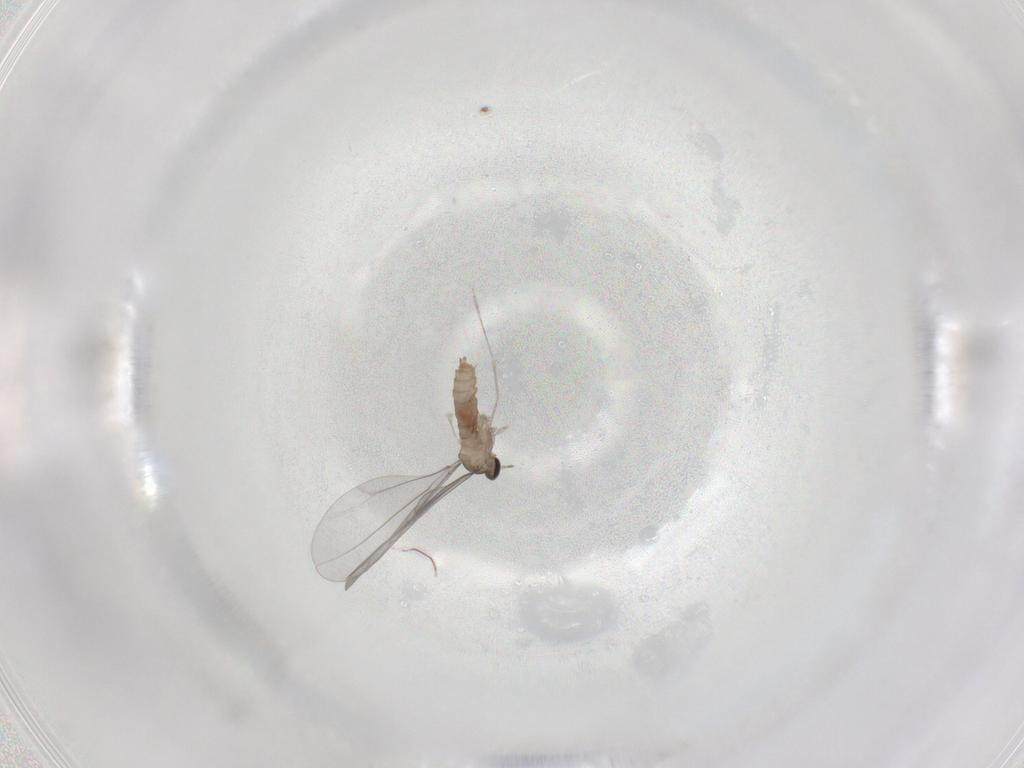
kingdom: Animalia
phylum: Arthropoda
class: Insecta
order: Diptera
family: Cecidomyiidae
